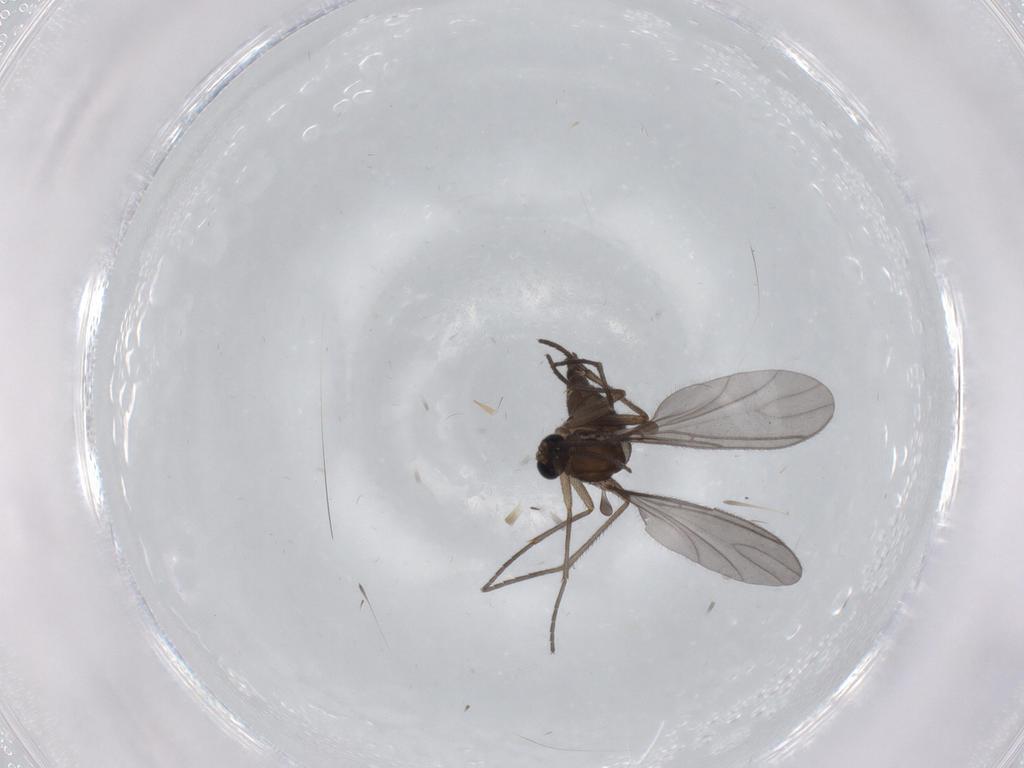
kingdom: Animalia
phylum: Arthropoda
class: Insecta
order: Diptera
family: Sciaridae
